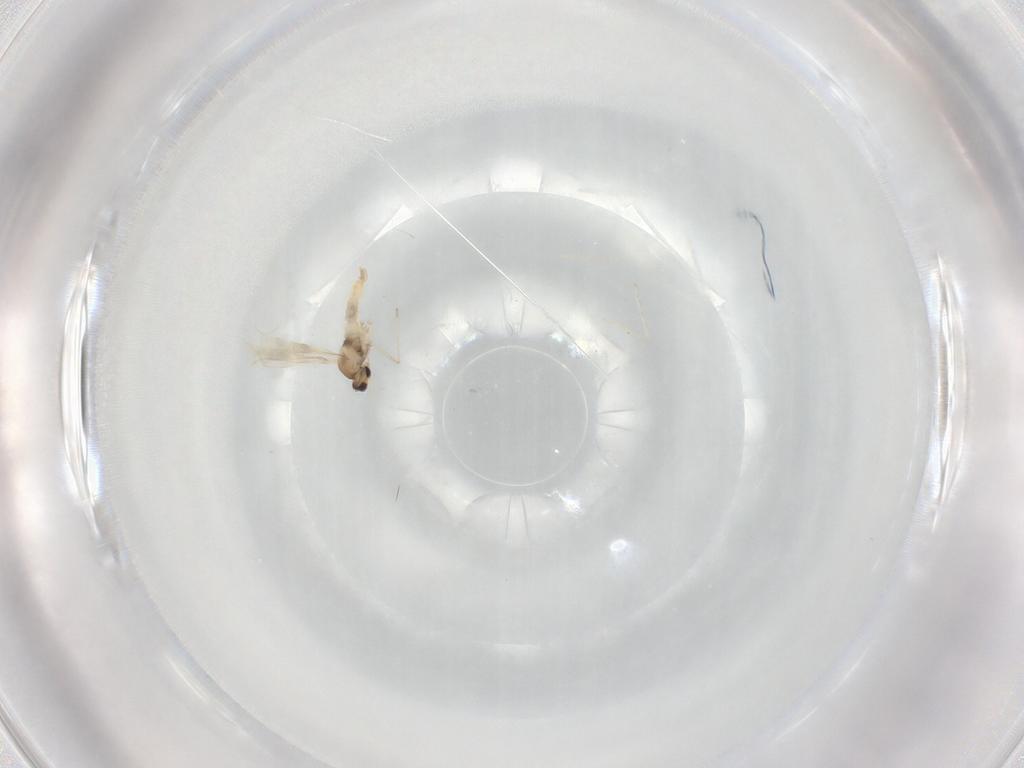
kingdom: Animalia
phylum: Arthropoda
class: Insecta
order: Diptera
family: Cecidomyiidae
